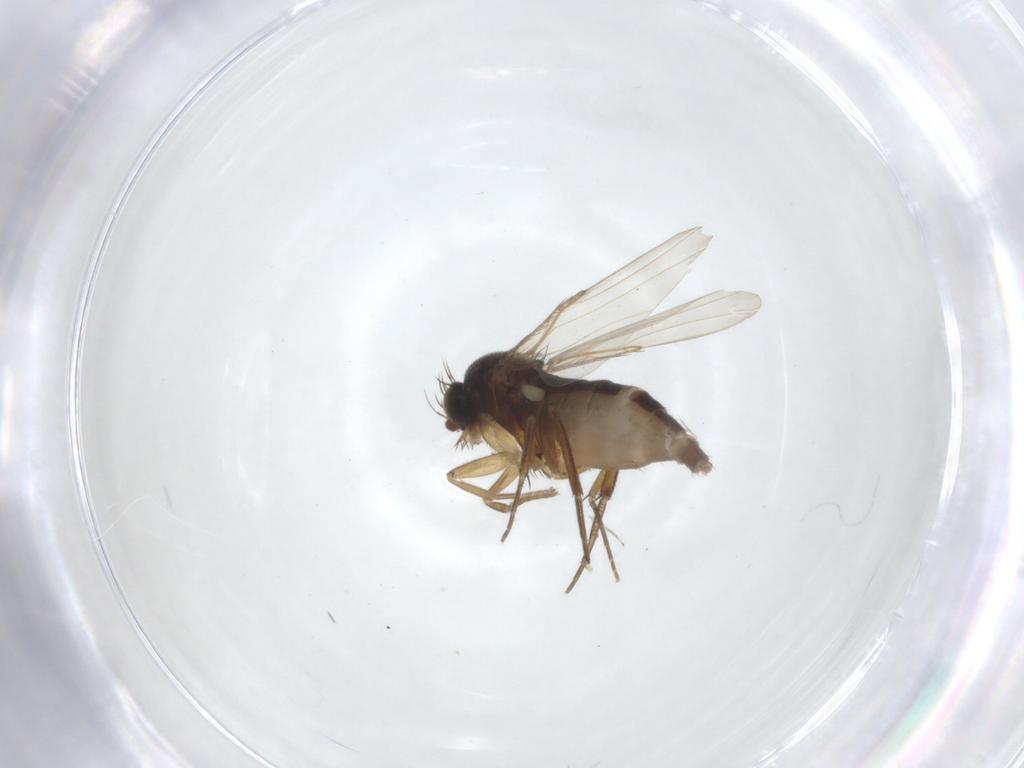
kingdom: Animalia
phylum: Arthropoda
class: Insecta
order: Diptera
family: Phoridae
